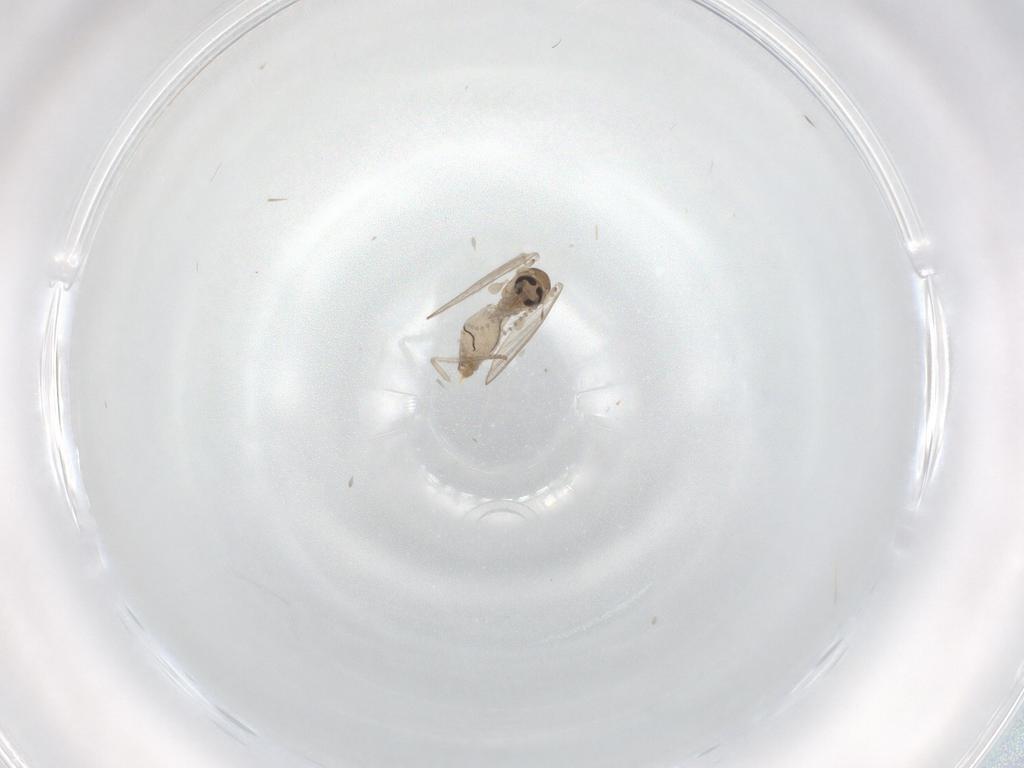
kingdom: Animalia
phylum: Arthropoda
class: Insecta
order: Diptera
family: Psychodidae
